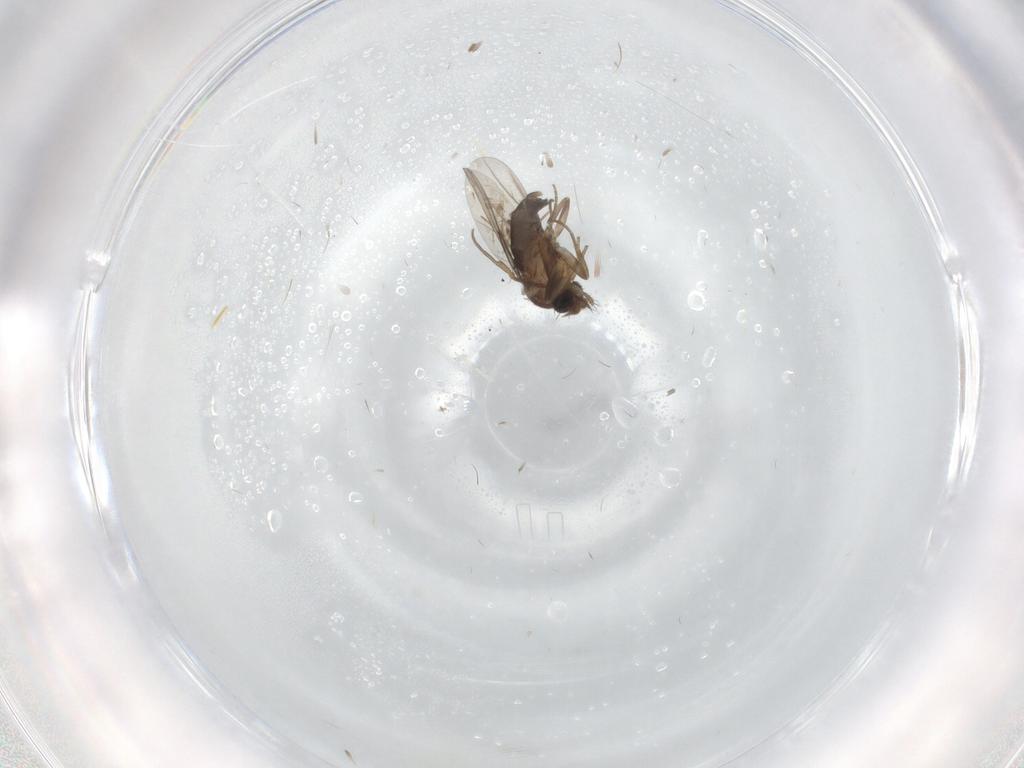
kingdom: Animalia
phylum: Arthropoda
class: Insecta
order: Diptera
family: Phoridae
